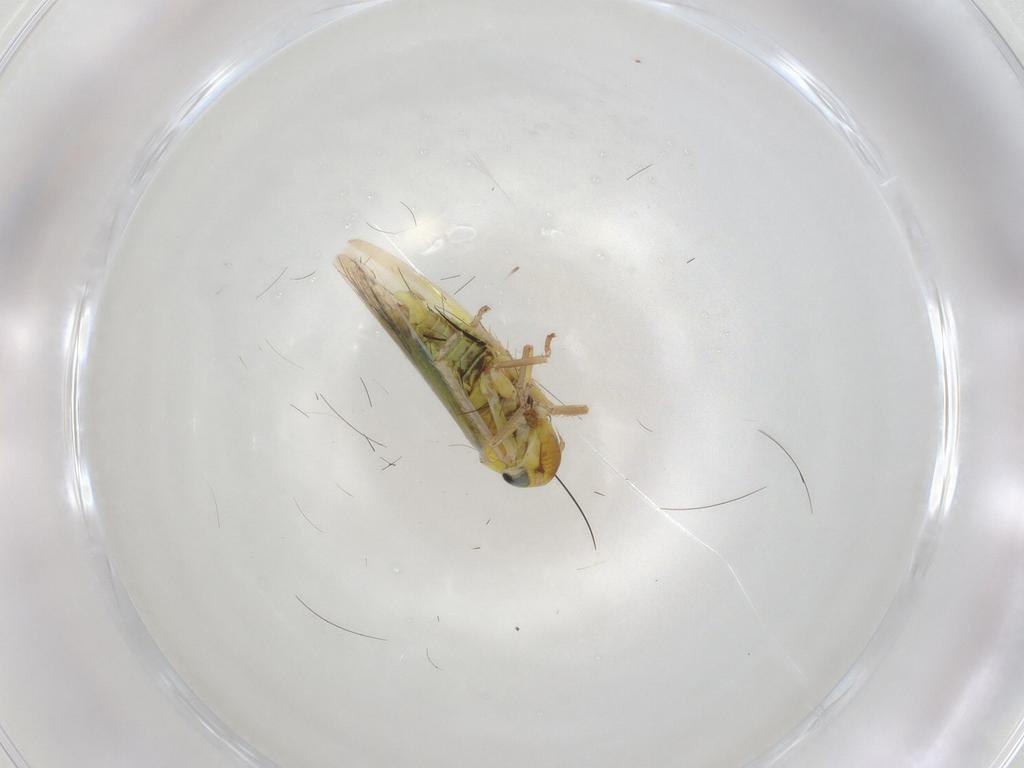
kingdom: Animalia
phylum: Arthropoda
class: Insecta
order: Hemiptera
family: Cicadellidae
